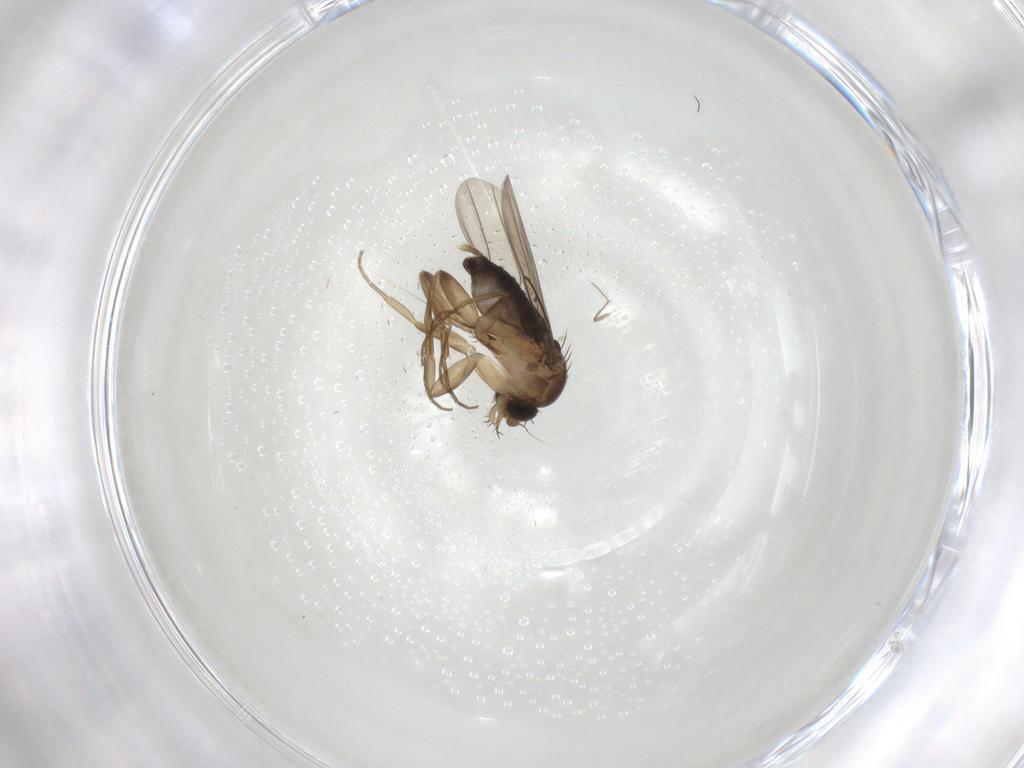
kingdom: Animalia
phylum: Arthropoda
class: Insecta
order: Diptera
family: Phoridae
